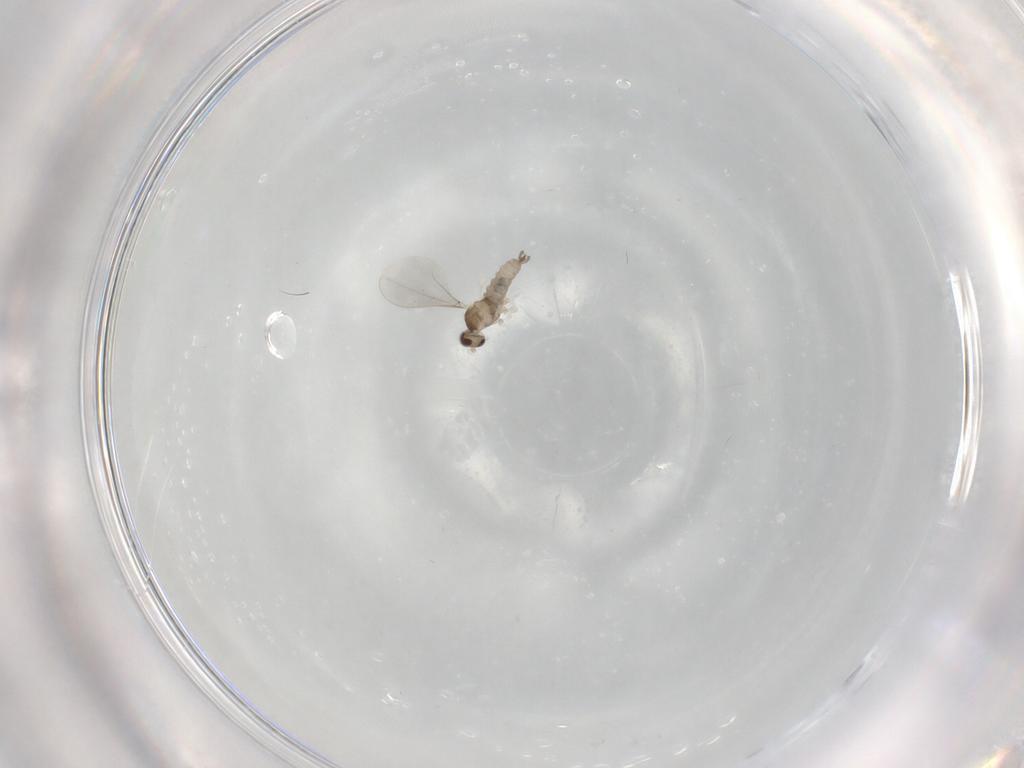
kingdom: Animalia
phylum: Arthropoda
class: Insecta
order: Diptera
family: Cecidomyiidae
